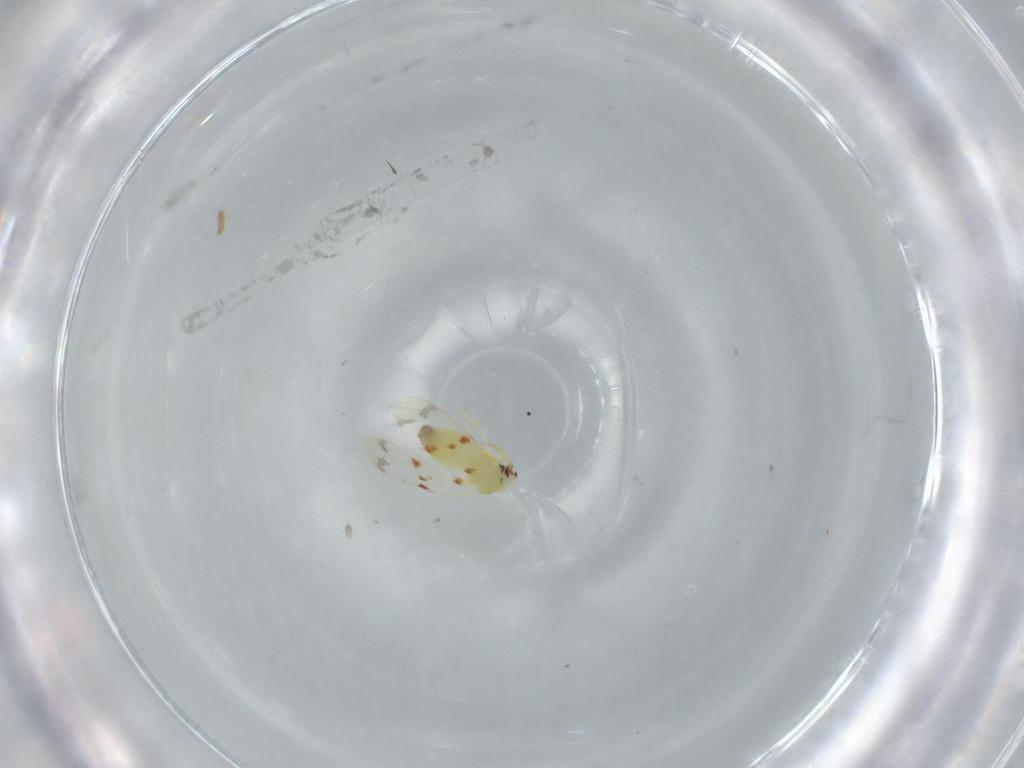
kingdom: Animalia
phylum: Arthropoda
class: Insecta
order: Hemiptera
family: Aleyrodidae
